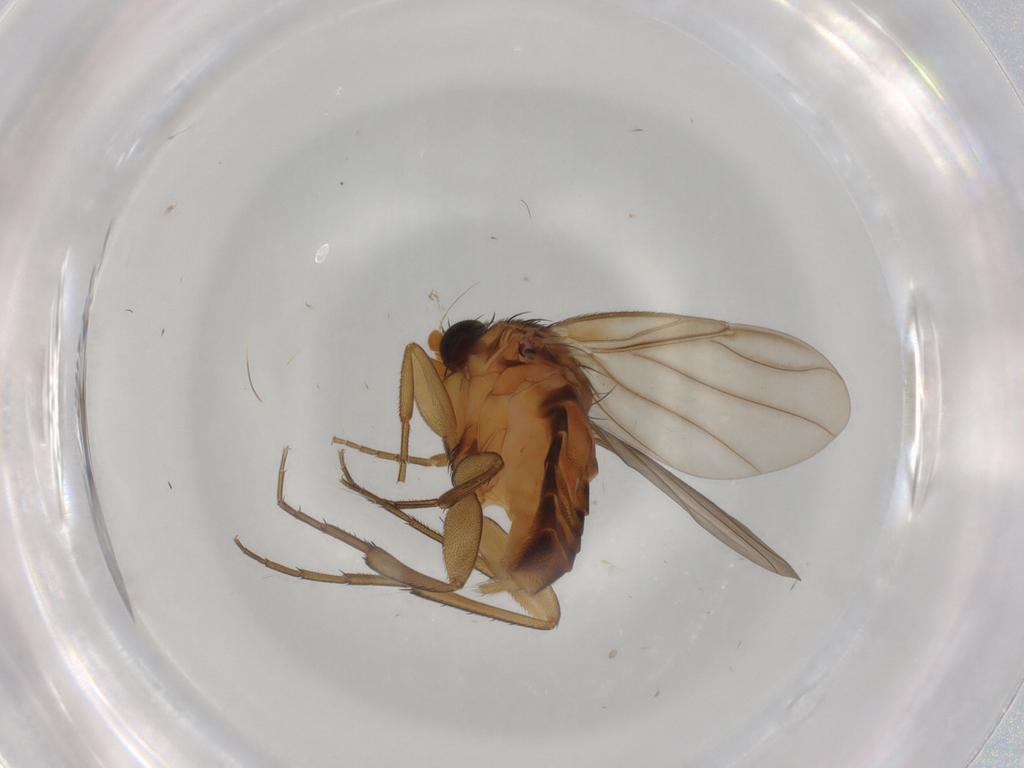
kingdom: Animalia
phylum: Arthropoda
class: Insecta
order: Diptera
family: Phoridae
